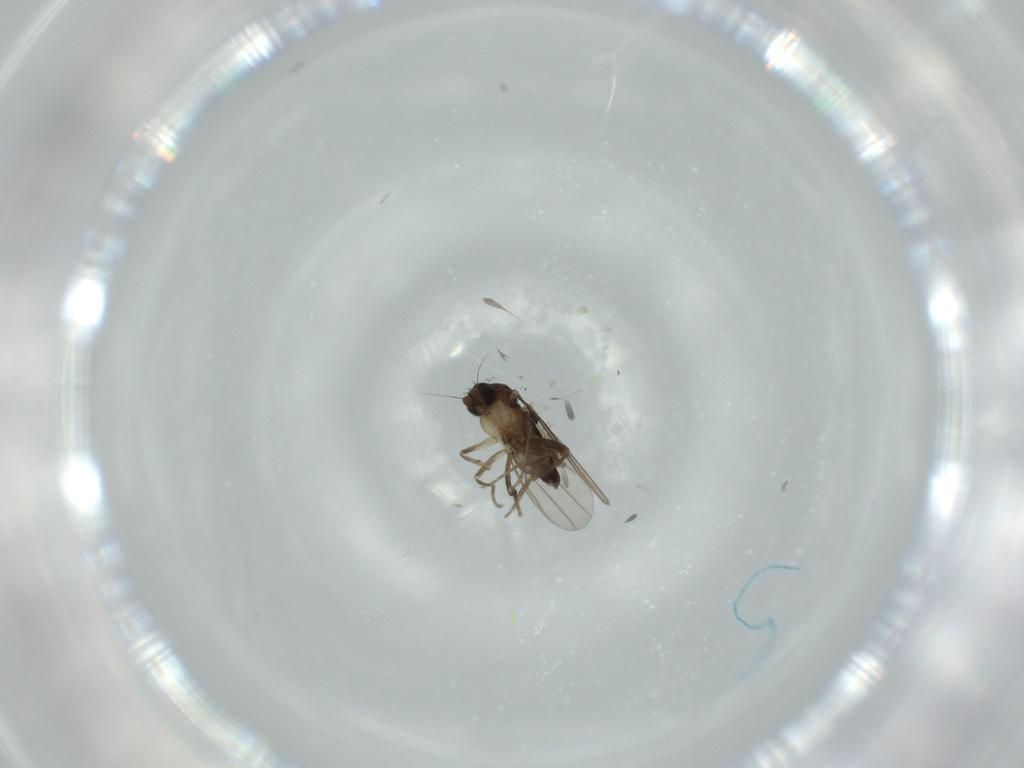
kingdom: Animalia
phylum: Arthropoda
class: Insecta
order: Diptera
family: Phoridae
